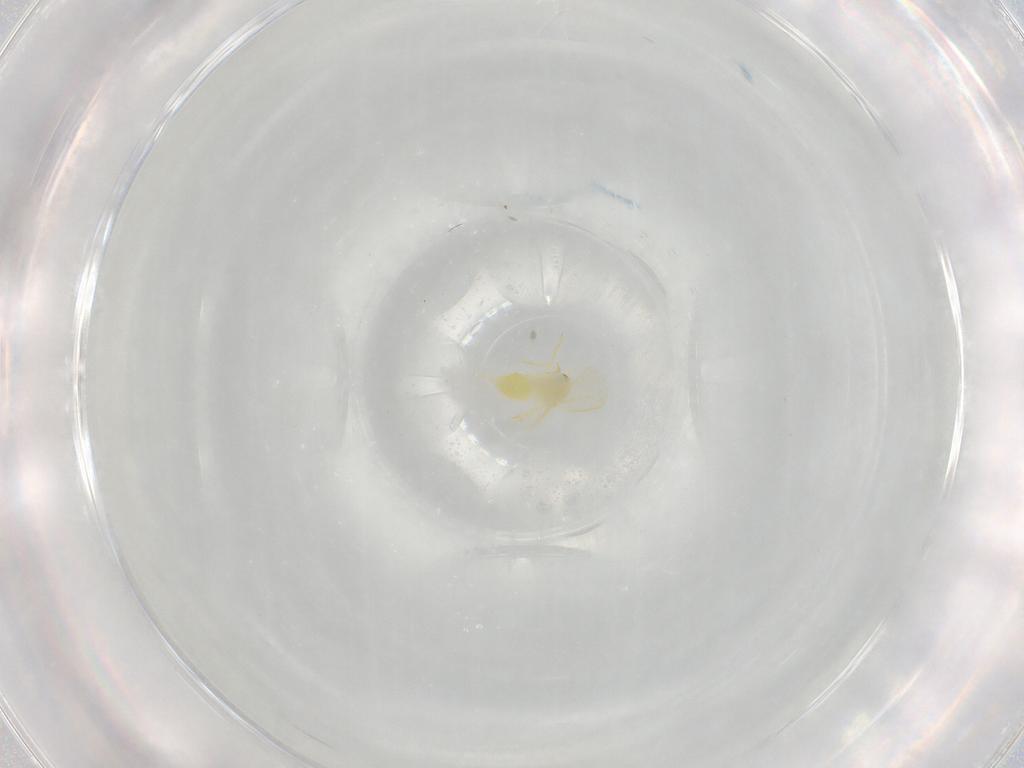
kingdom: Animalia
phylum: Arthropoda
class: Insecta
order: Hemiptera
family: Aleyrodidae
